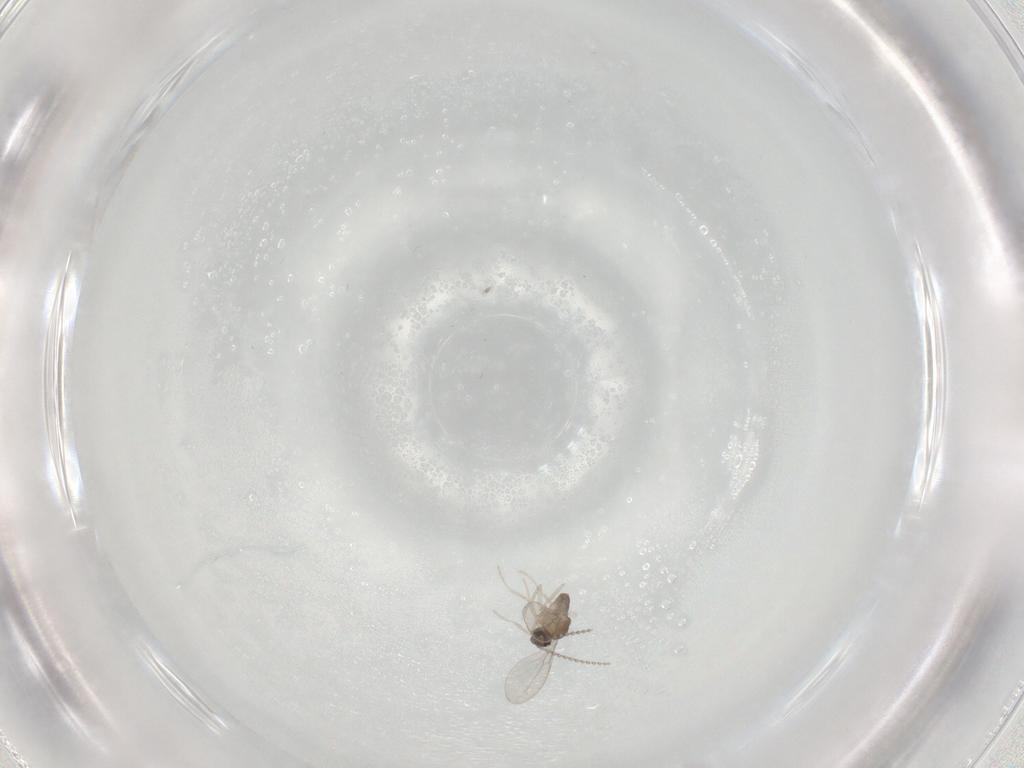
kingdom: Animalia
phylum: Arthropoda
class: Insecta
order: Diptera
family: Cecidomyiidae
